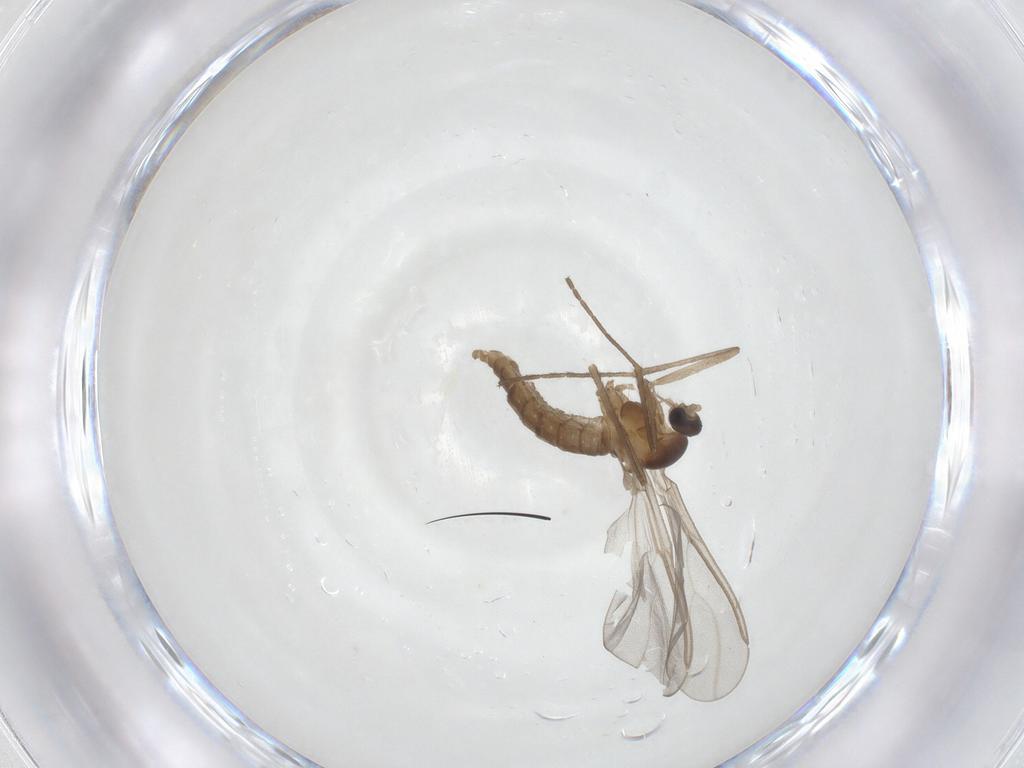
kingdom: Animalia
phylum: Arthropoda
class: Insecta
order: Diptera
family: Cecidomyiidae
